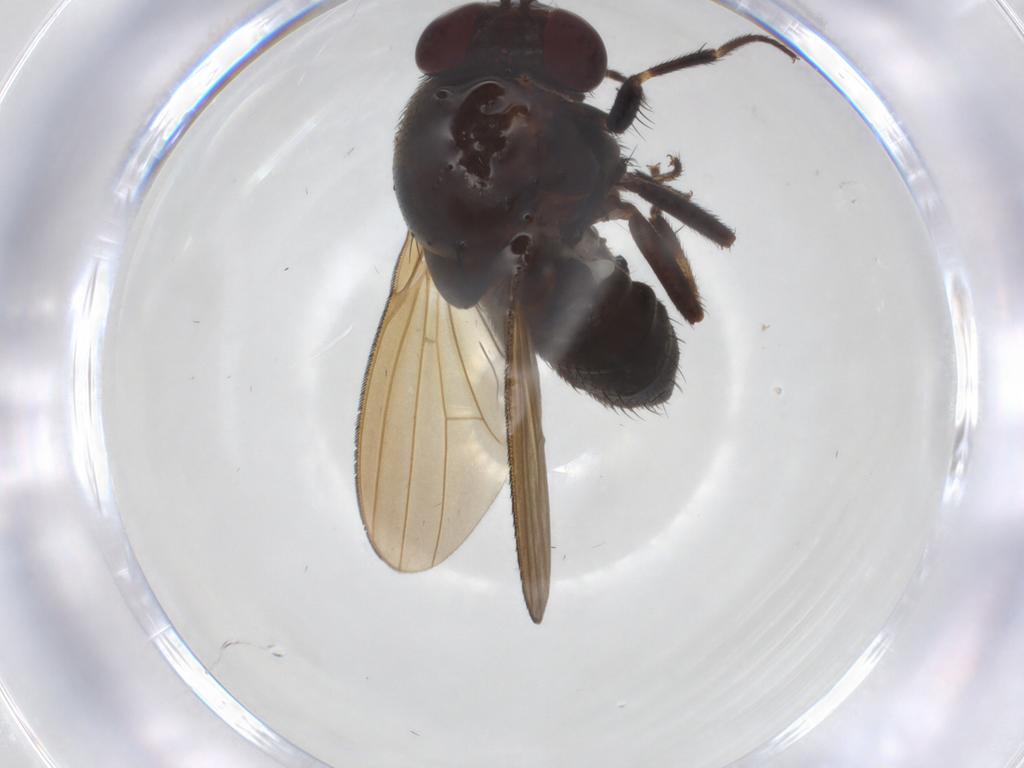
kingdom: Animalia
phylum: Arthropoda
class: Insecta
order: Diptera
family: Lauxaniidae
